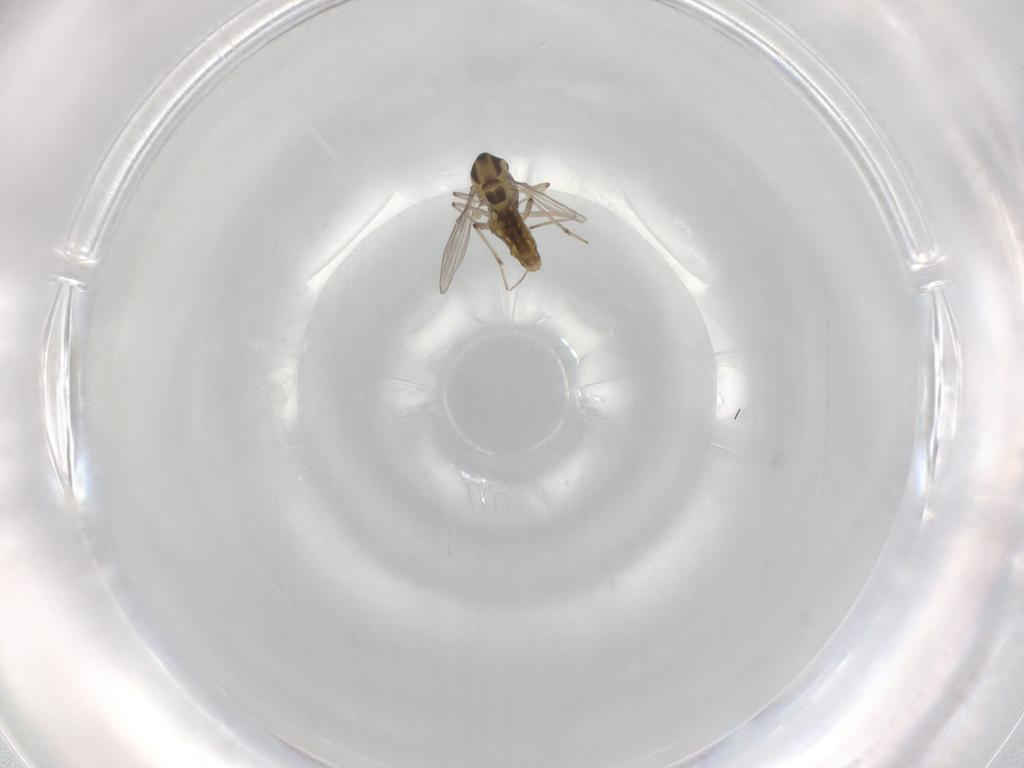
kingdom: Animalia
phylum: Arthropoda
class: Insecta
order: Diptera
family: Chironomidae
